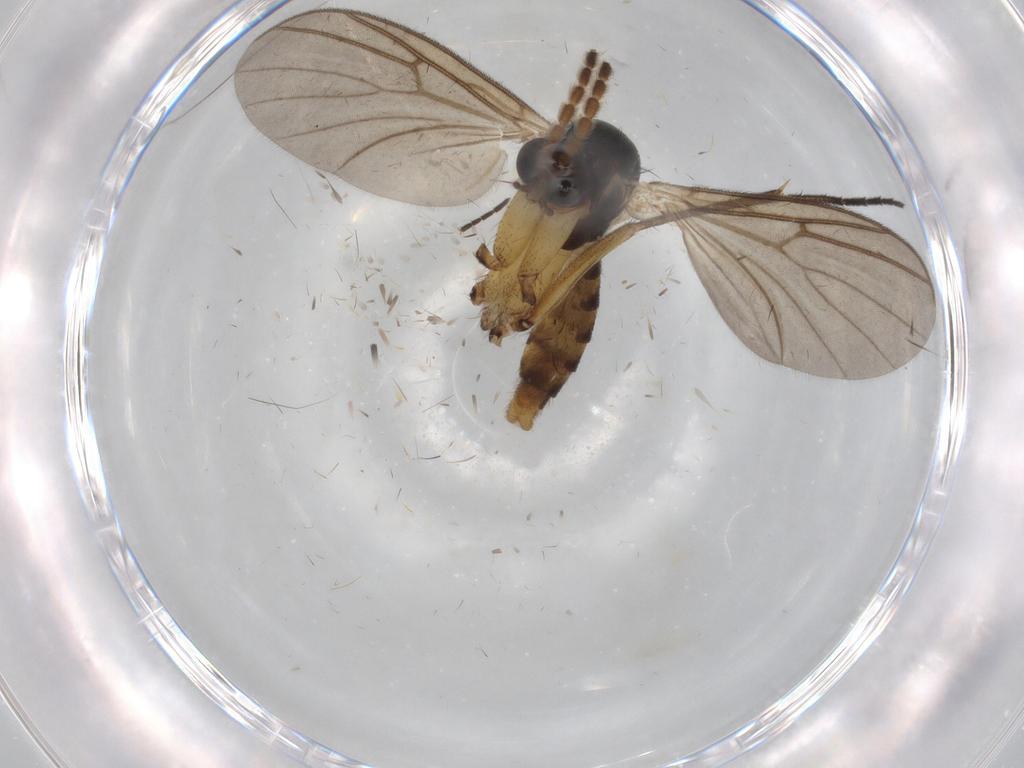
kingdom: Animalia
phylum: Arthropoda
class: Insecta
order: Diptera
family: Cecidomyiidae
